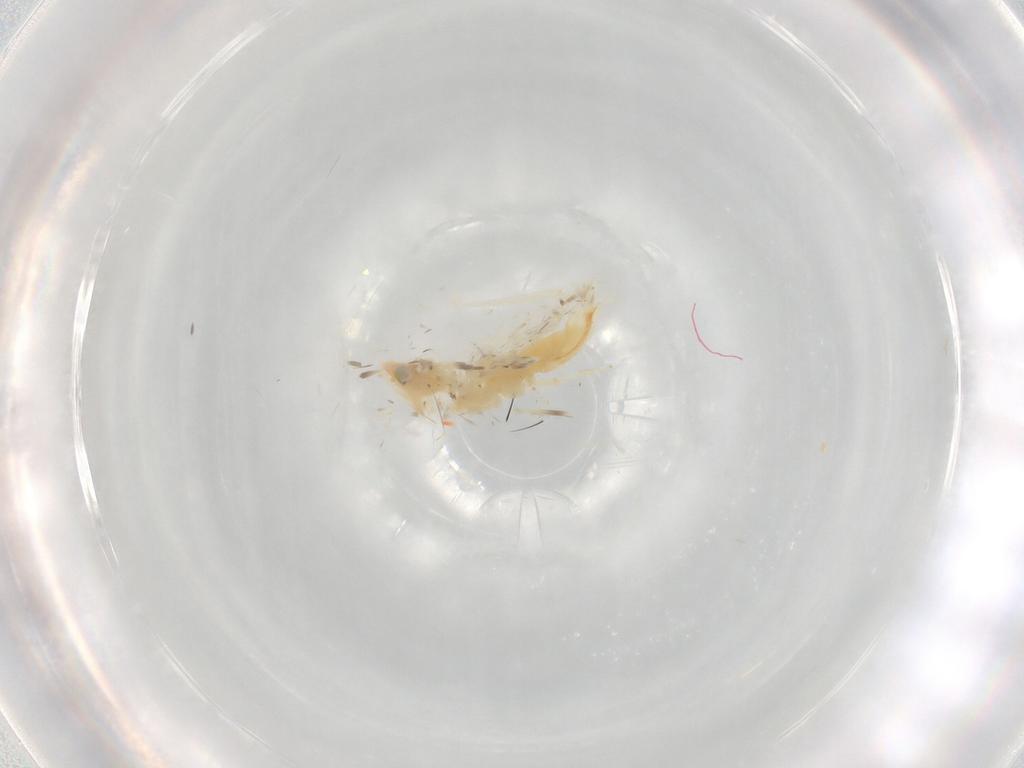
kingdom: Animalia
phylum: Arthropoda
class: Insecta
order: Hemiptera
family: Cicadellidae
